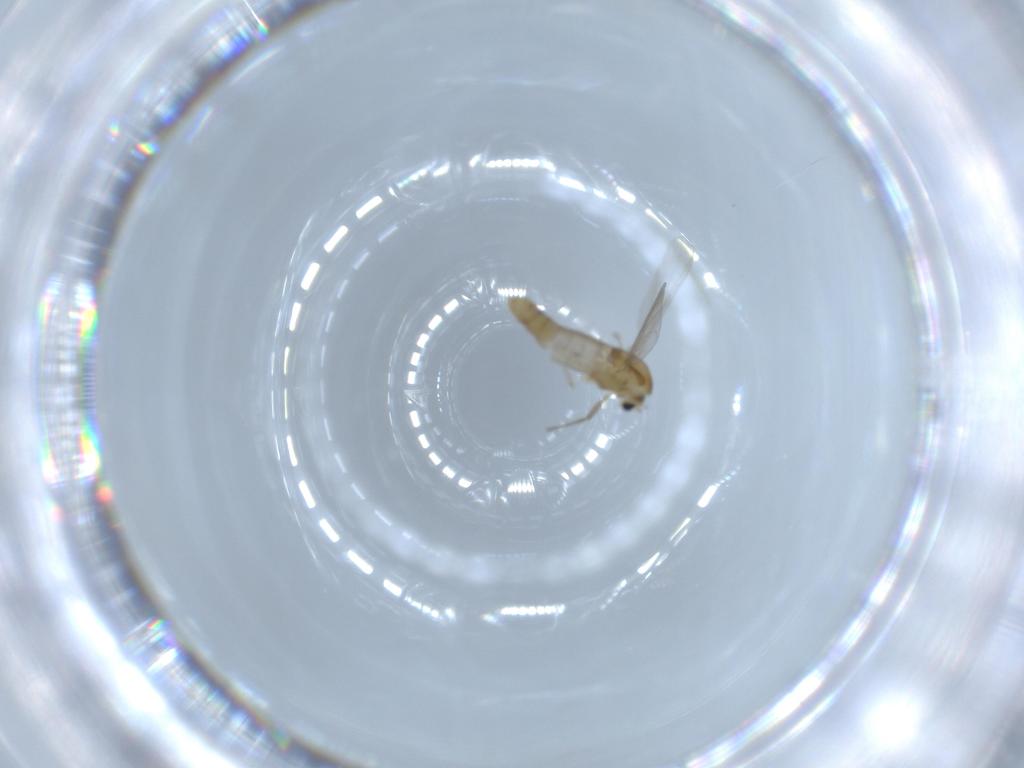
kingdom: Animalia
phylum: Arthropoda
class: Insecta
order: Diptera
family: Chironomidae
